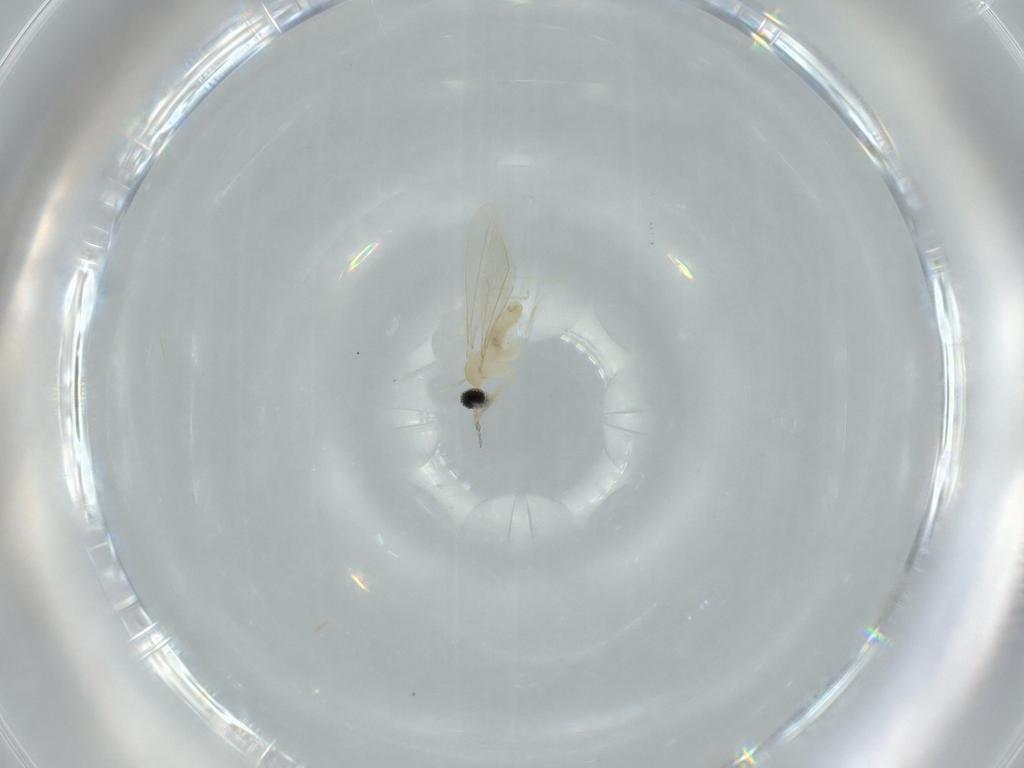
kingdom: Animalia
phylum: Arthropoda
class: Insecta
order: Diptera
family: Cecidomyiidae
